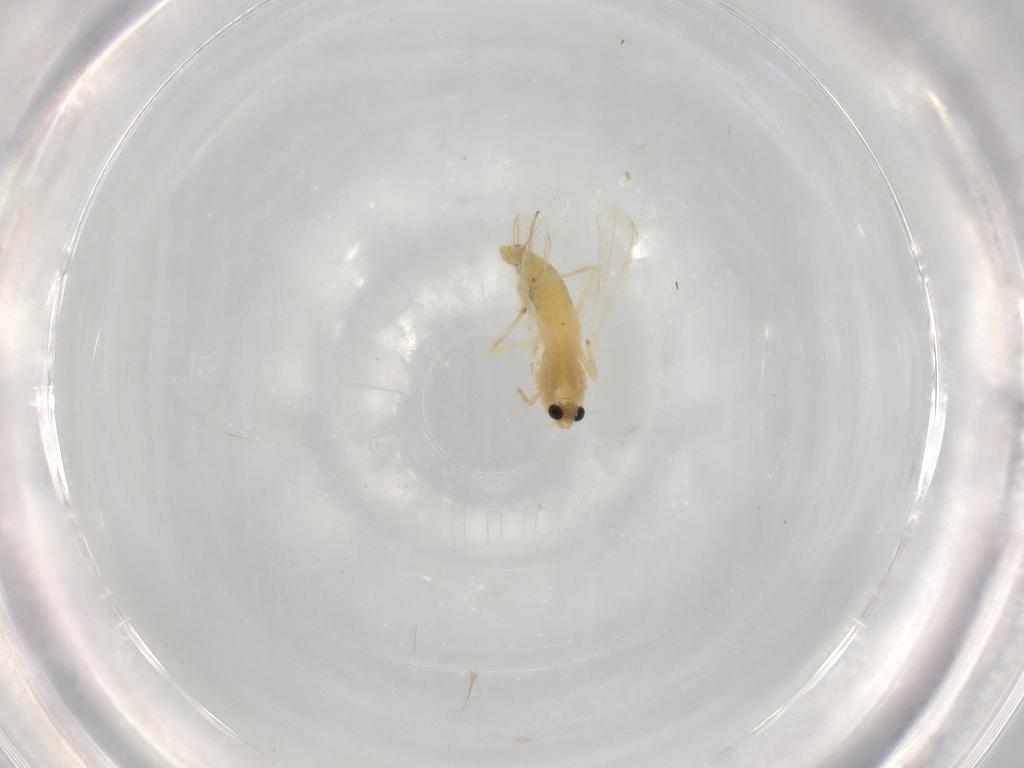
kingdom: Animalia
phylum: Arthropoda
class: Insecta
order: Diptera
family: Chironomidae
